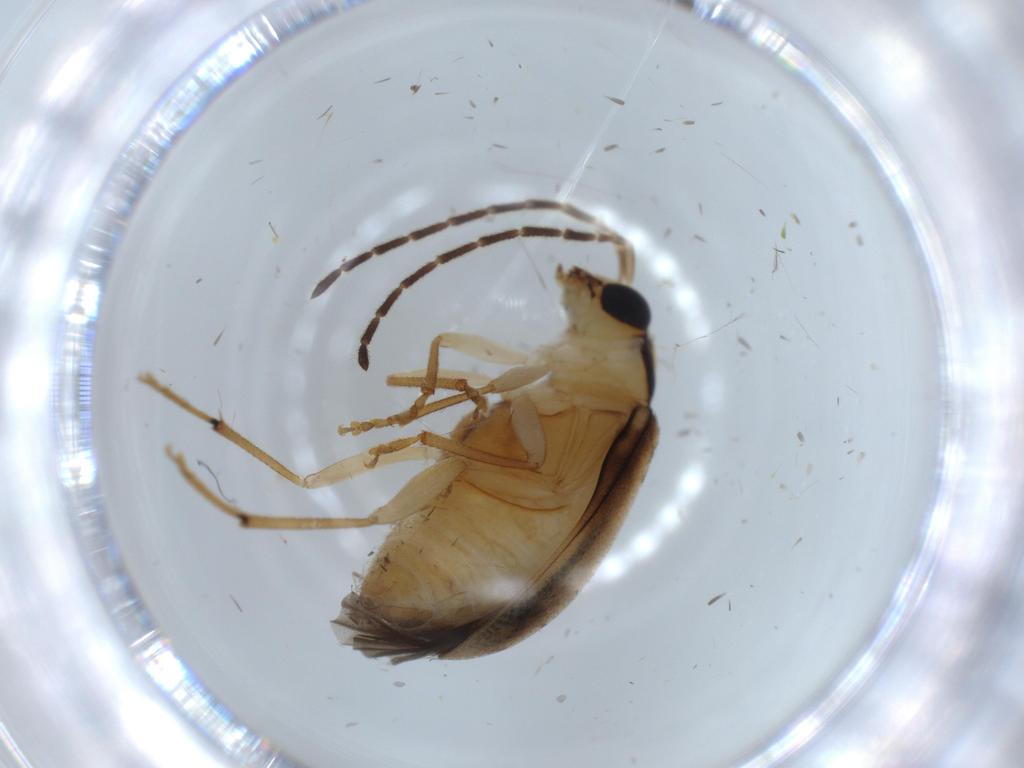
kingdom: Animalia
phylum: Arthropoda
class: Insecta
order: Coleoptera
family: Chrysomelidae
